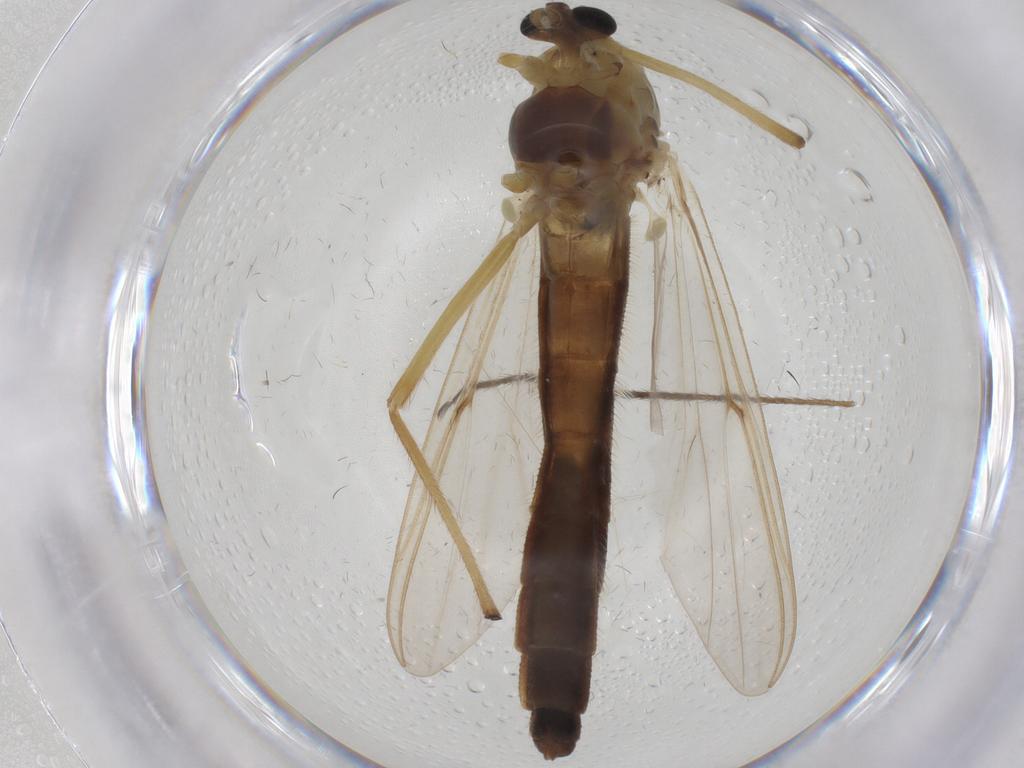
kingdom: Animalia
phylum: Arthropoda
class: Insecta
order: Diptera
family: Chironomidae
